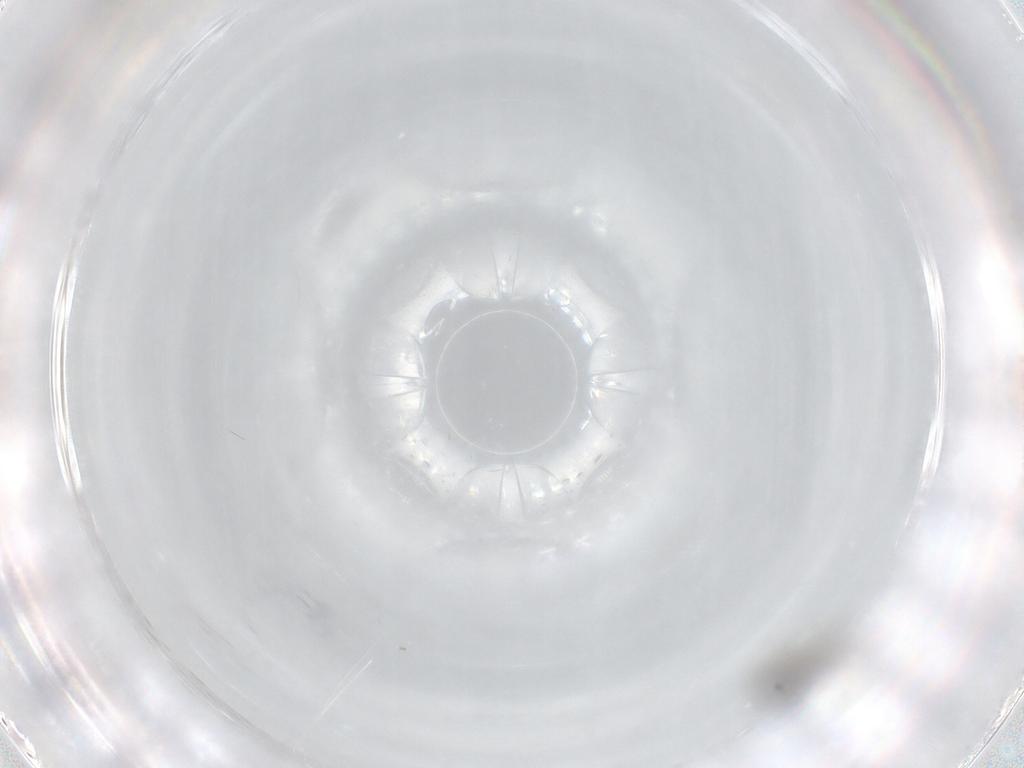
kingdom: Animalia
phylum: Arthropoda
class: Insecta
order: Diptera
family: Cecidomyiidae
